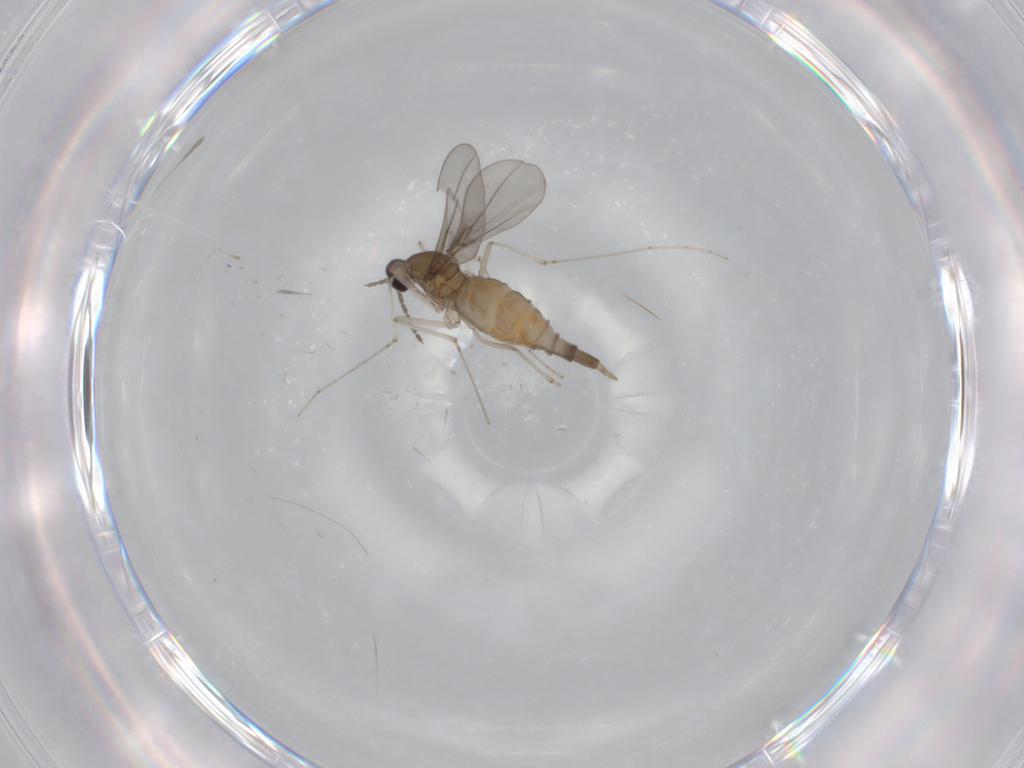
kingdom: Animalia
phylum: Arthropoda
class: Insecta
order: Diptera
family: Cecidomyiidae
